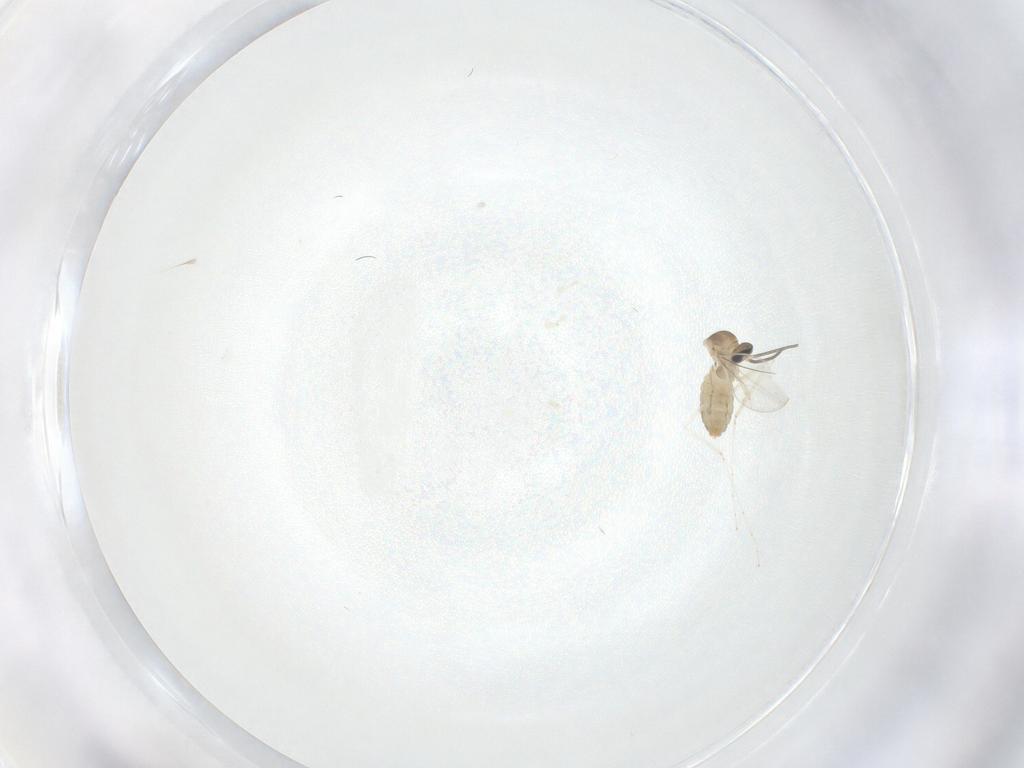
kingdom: Animalia
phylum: Arthropoda
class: Insecta
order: Diptera
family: Cecidomyiidae
